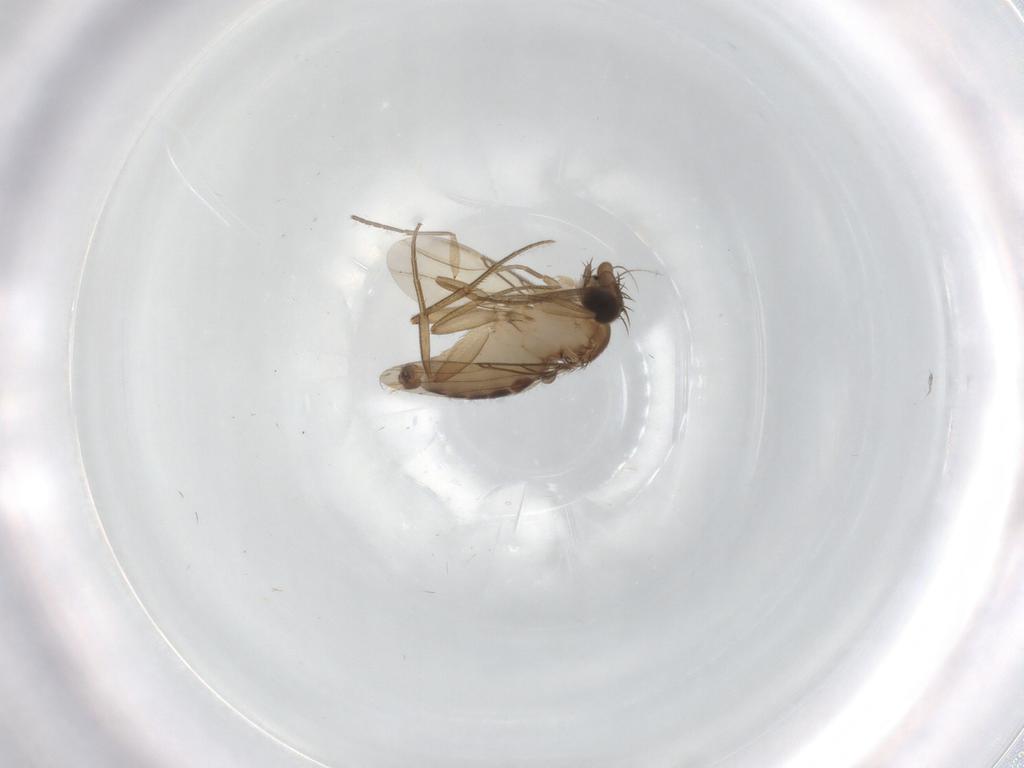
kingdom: Animalia
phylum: Arthropoda
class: Insecta
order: Diptera
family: Phoridae
